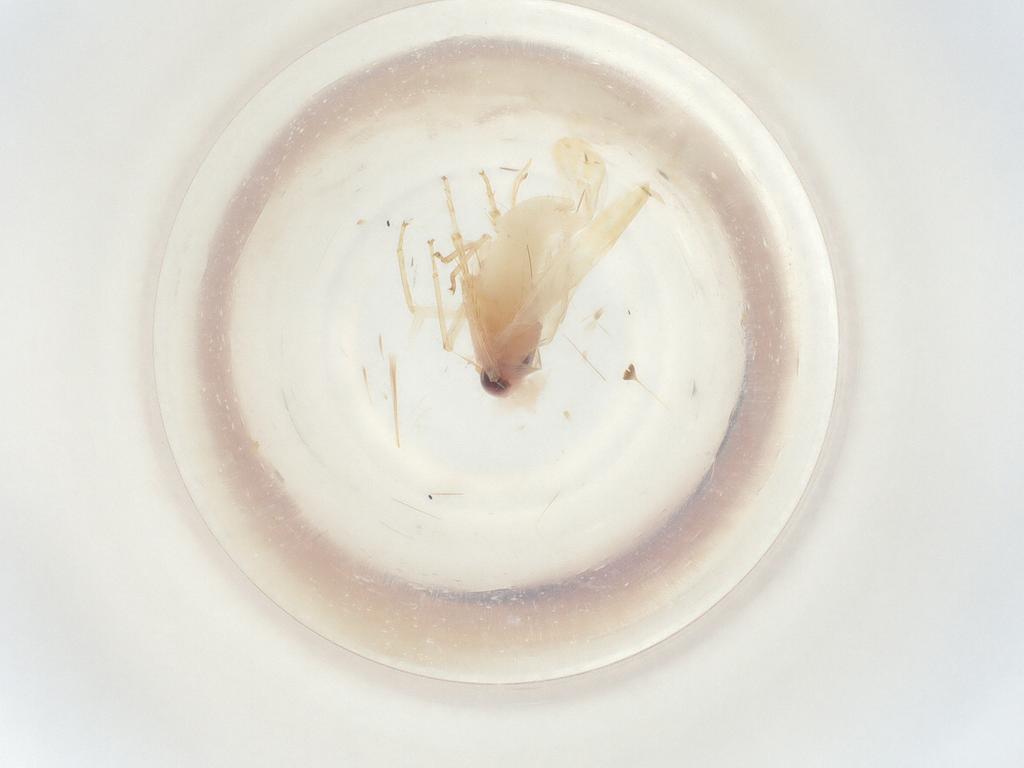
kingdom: Animalia
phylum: Arthropoda
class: Insecta
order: Hemiptera
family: Cicadellidae
